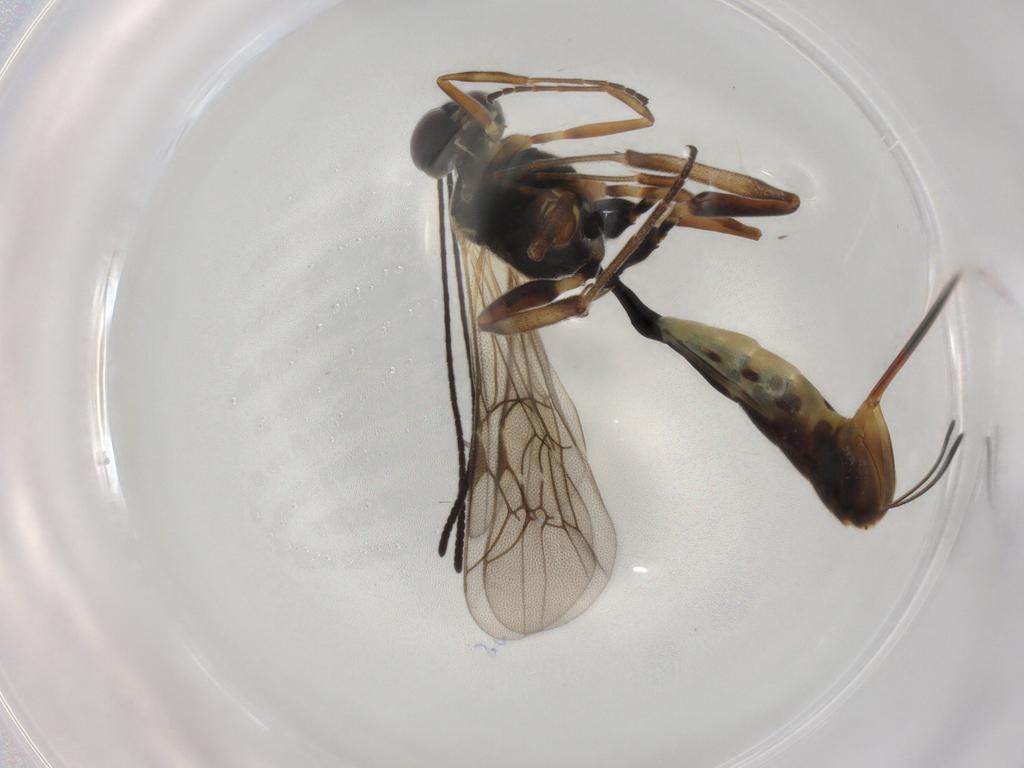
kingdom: Animalia
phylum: Arthropoda
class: Insecta
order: Hymenoptera
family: Ichneumonidae
